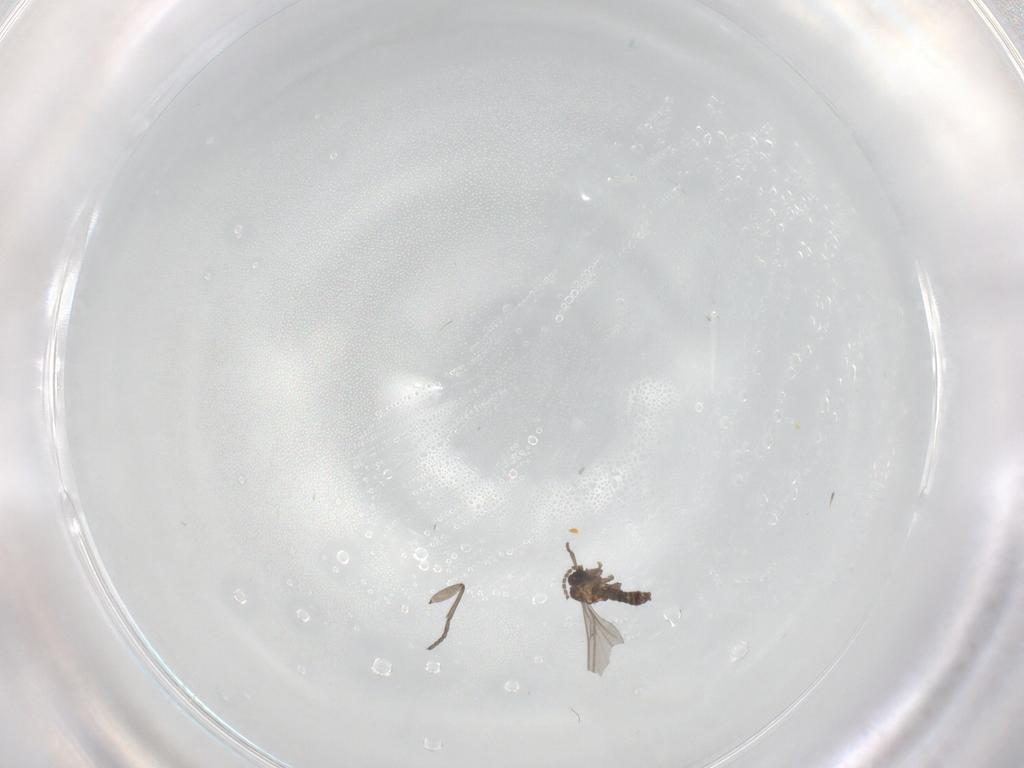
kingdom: Animalia
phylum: Arthropoda
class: Insecta
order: Diptera
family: Sciaridae
